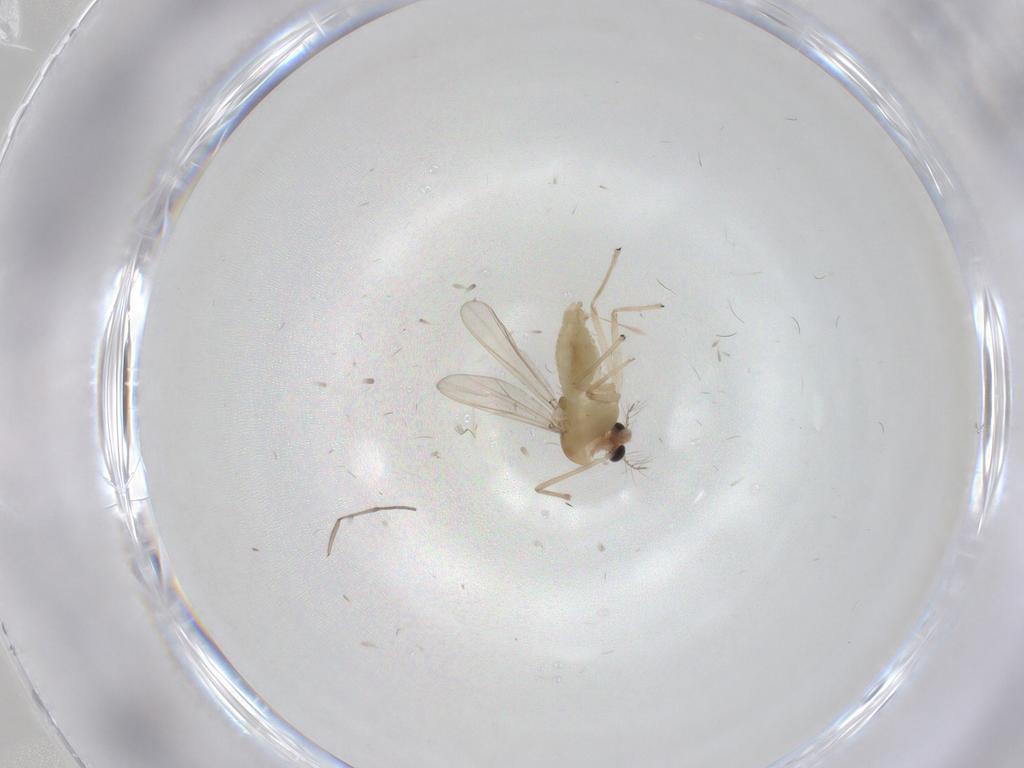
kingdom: Animalia
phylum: Arthropoda
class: Insecta
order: Diptera
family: Chironomidae
